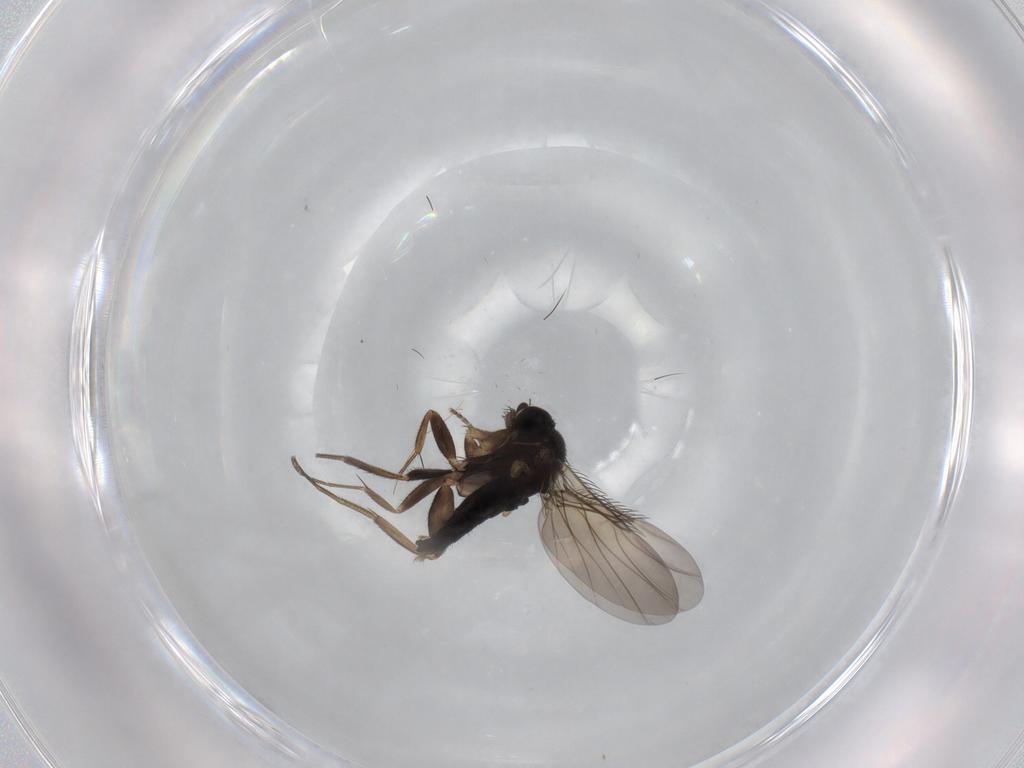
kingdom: Animalia
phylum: Arthropoda
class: Insecta
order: Diptera
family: Phoridae
